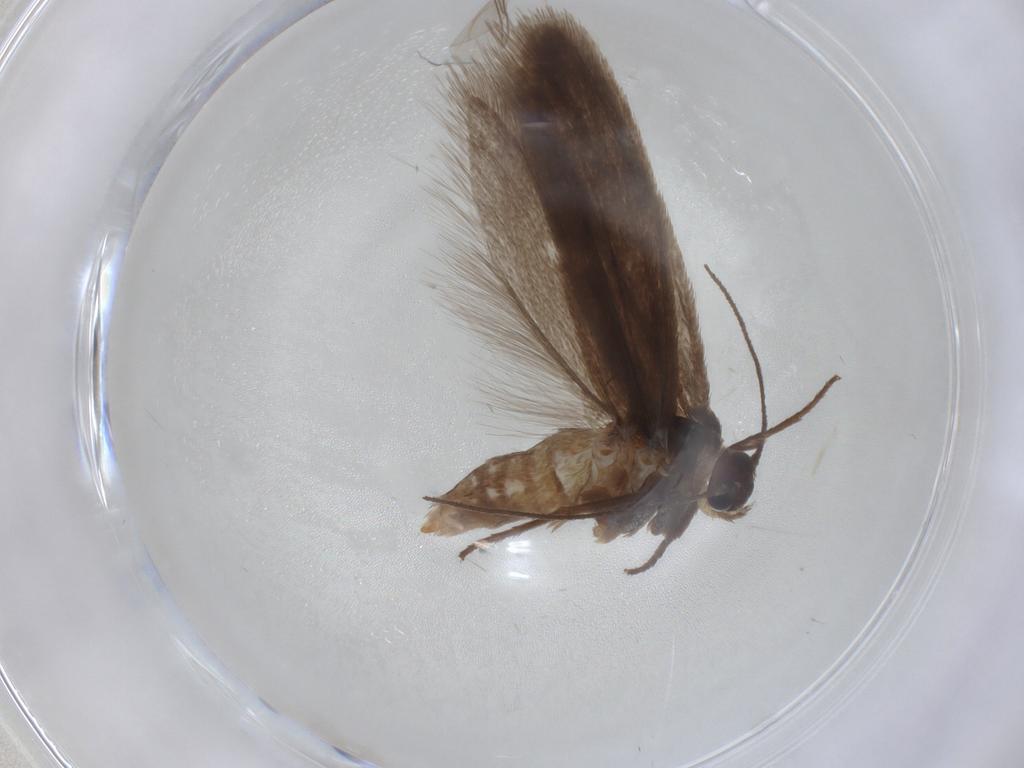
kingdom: Animalia
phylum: Arthropoda
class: Insecta
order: Lepidoptera
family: Limacodidae
